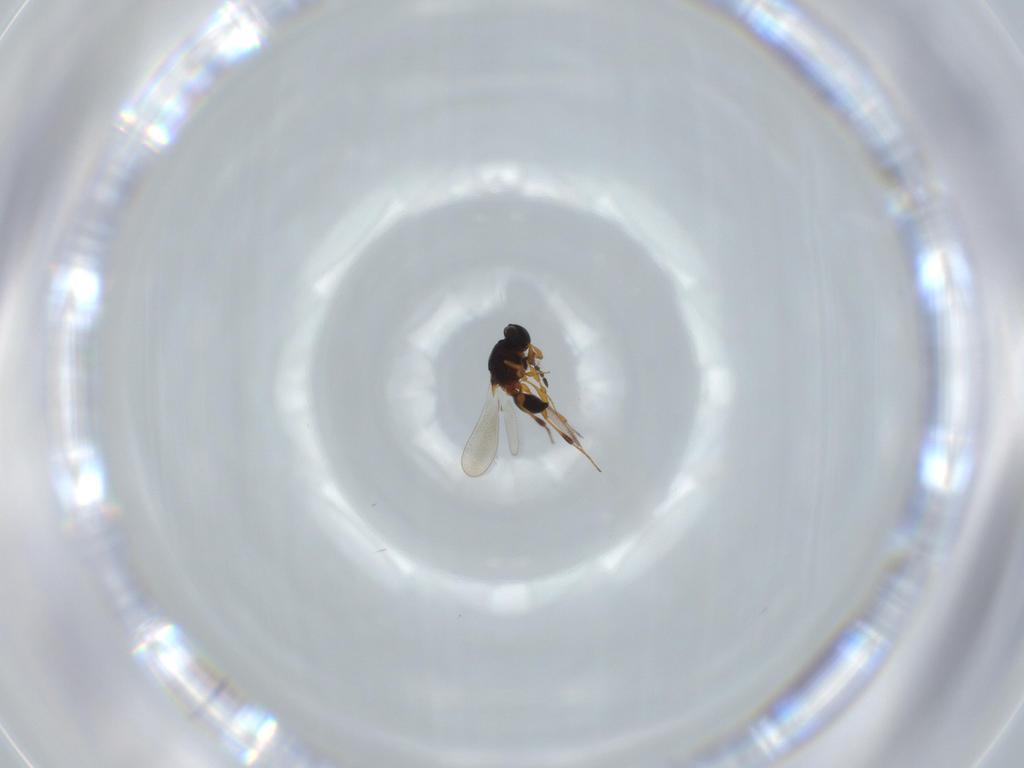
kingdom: Animalia
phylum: Arthropoda
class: Insecta
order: Hymenoptera
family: Platygastridae
